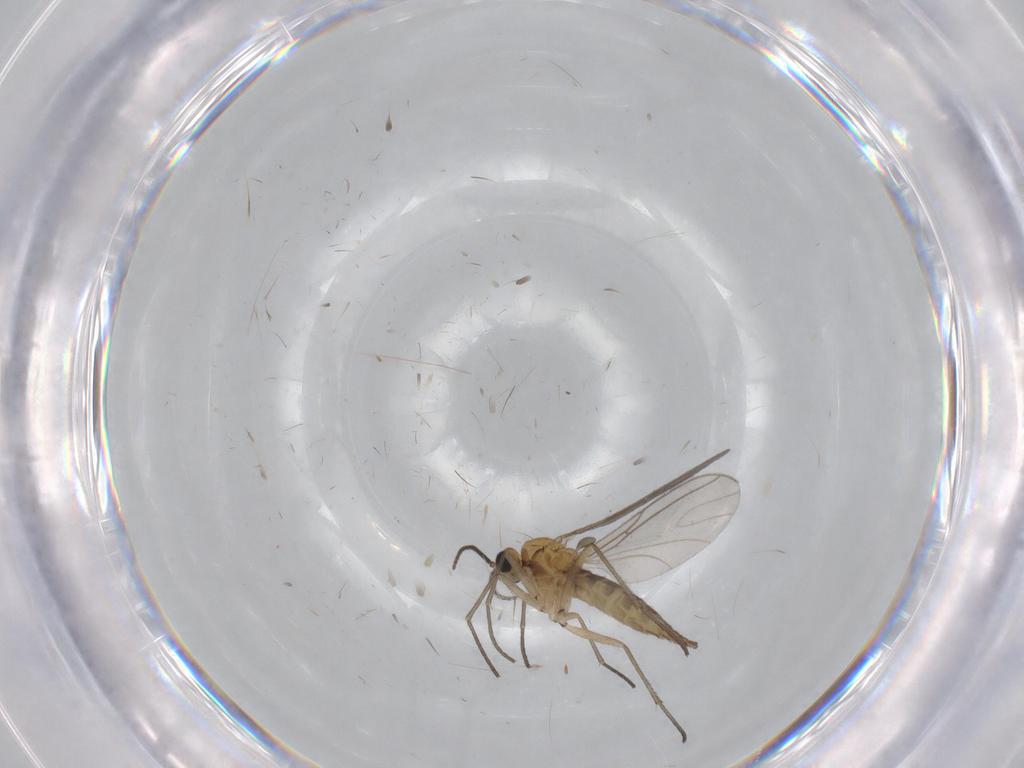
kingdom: Animalia
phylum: Arthropoda
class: Insecta
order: Diptera
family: Sciaridae
